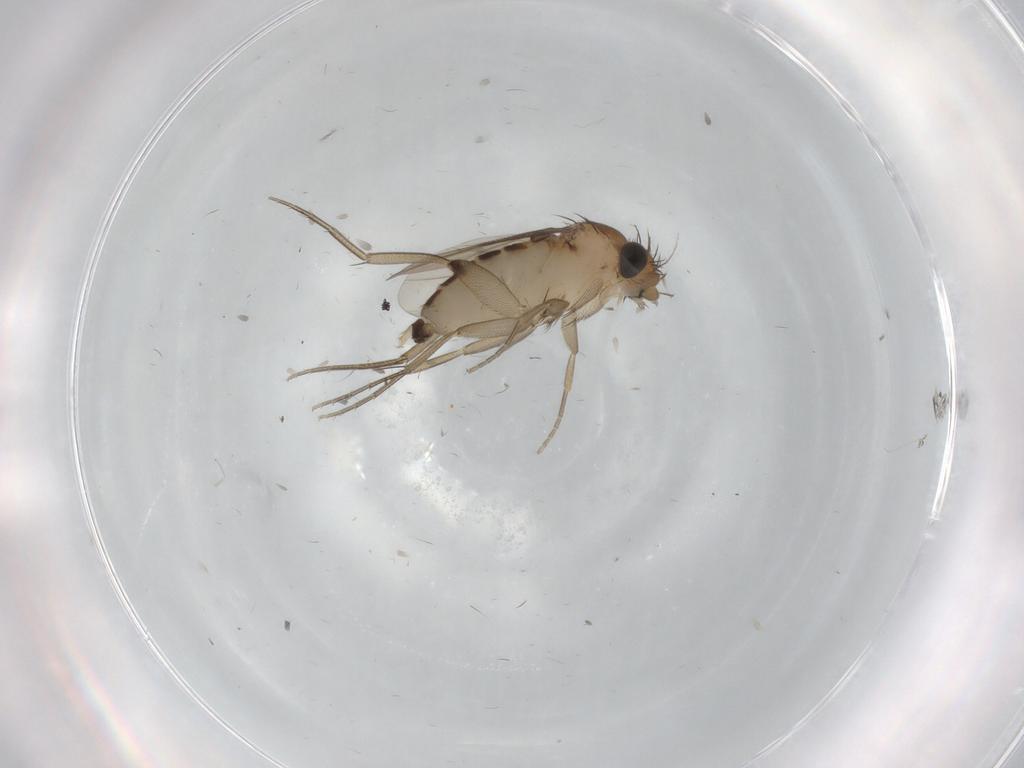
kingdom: Animalia
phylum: Arthropoda
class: Insecta
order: Diptera
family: Phoridae
